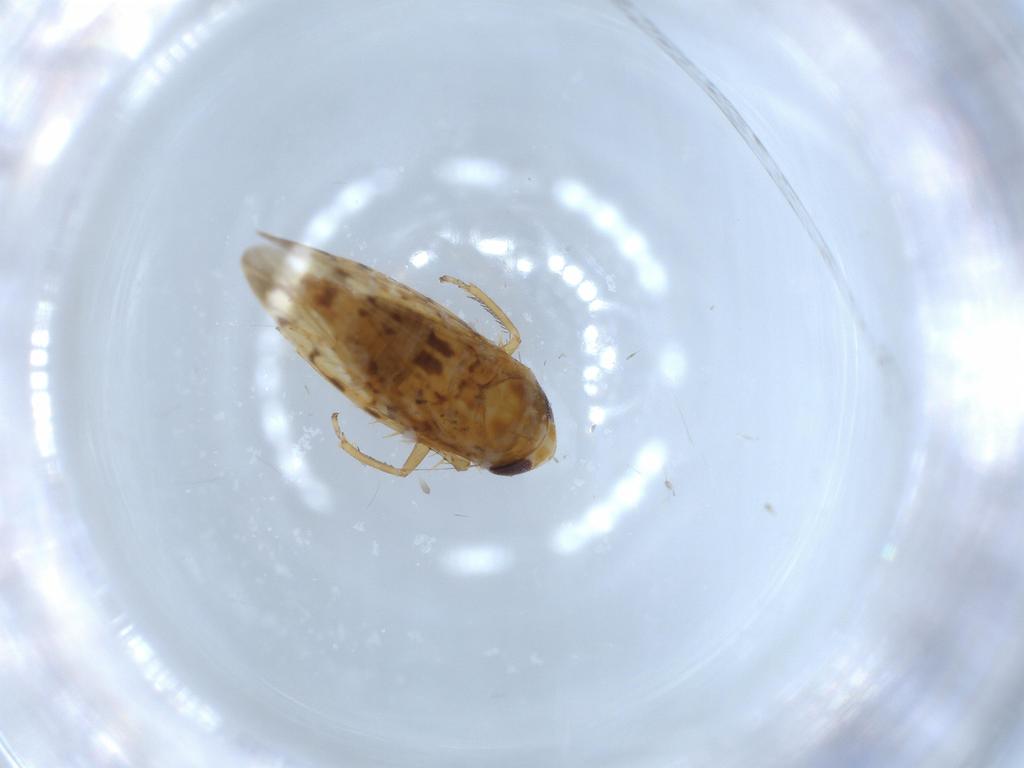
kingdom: Animalia
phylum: Arthropoda
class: Insecta
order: Hemiptera
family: Cicadellidae
